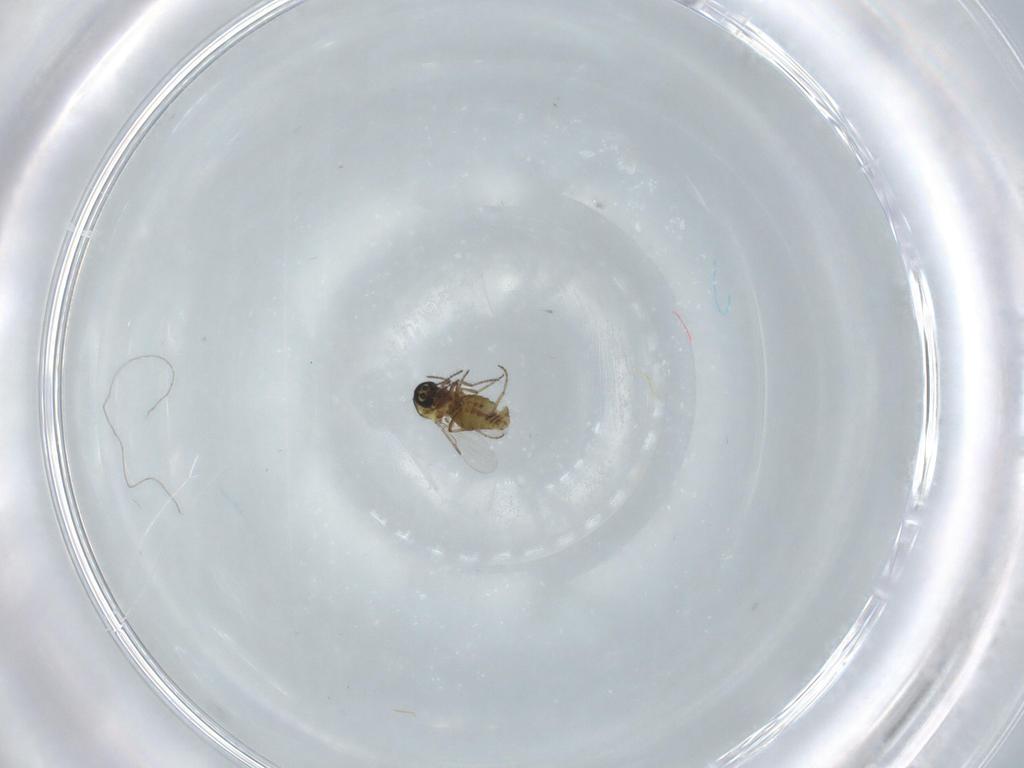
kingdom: Animalia
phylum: Arthropoda
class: Insecta
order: Diptera
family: Ceratopogonidae
